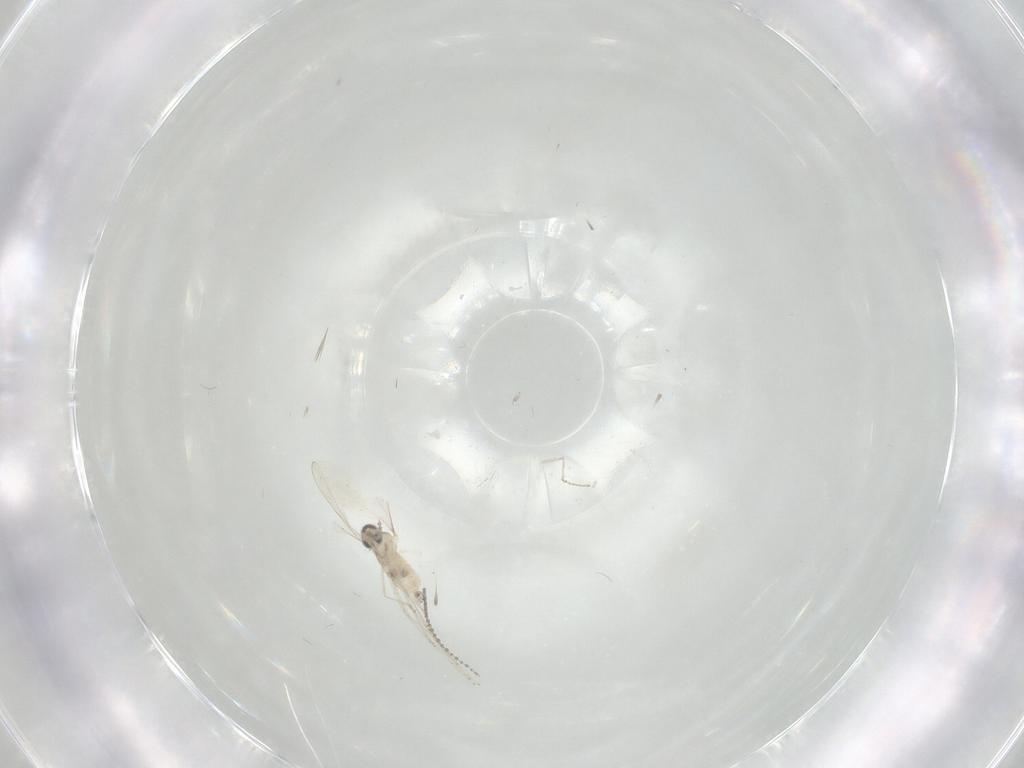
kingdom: Animalia
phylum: Arthropoda
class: Insecta
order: Diptera
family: Cecidomyiidae
